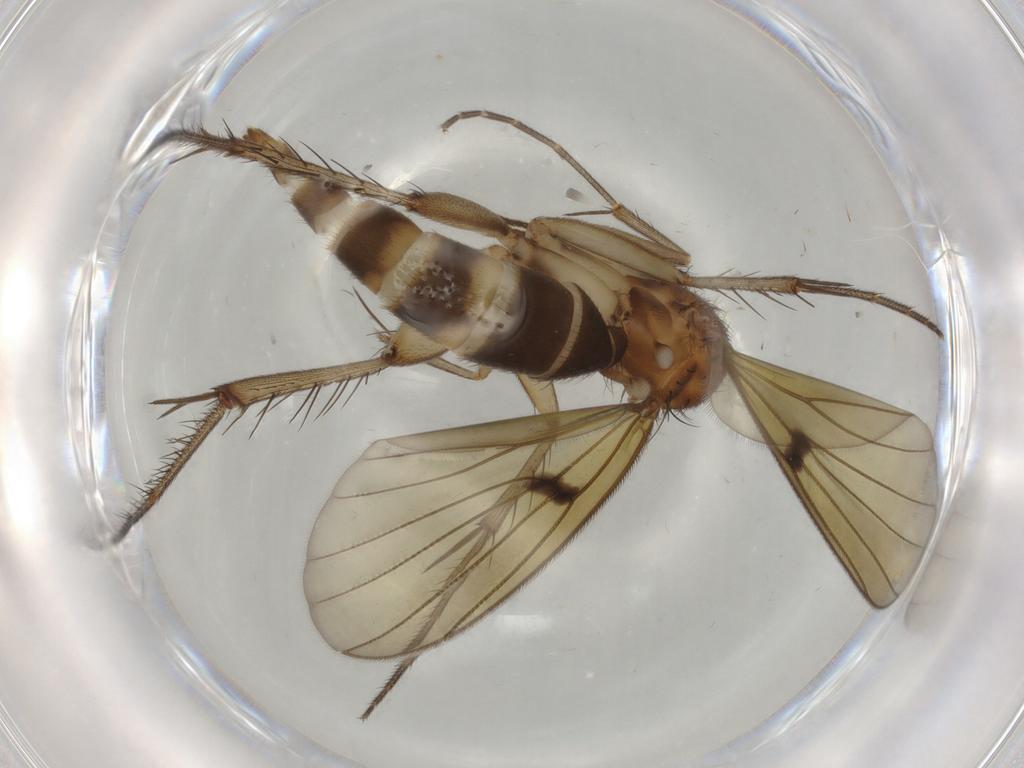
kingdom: Animalia
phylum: Arthropoda
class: Insecta
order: Diptera
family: Mycetophilidae
